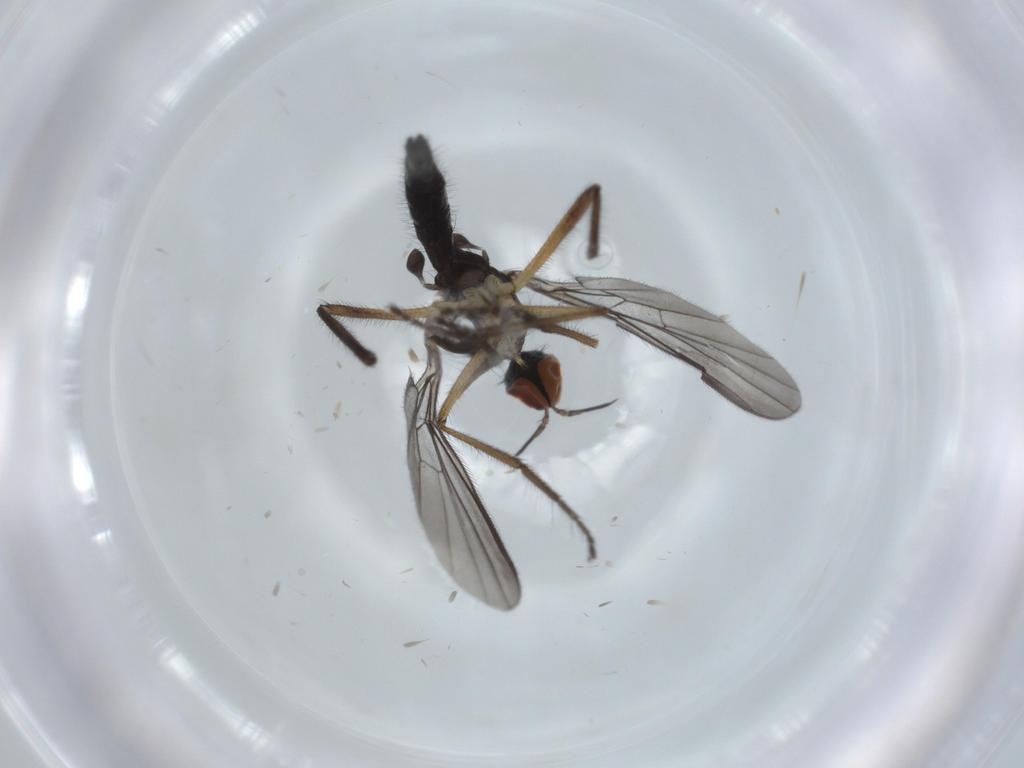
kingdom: Animalia
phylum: Arthropoda
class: Insecta
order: Diptera
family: Empididae
